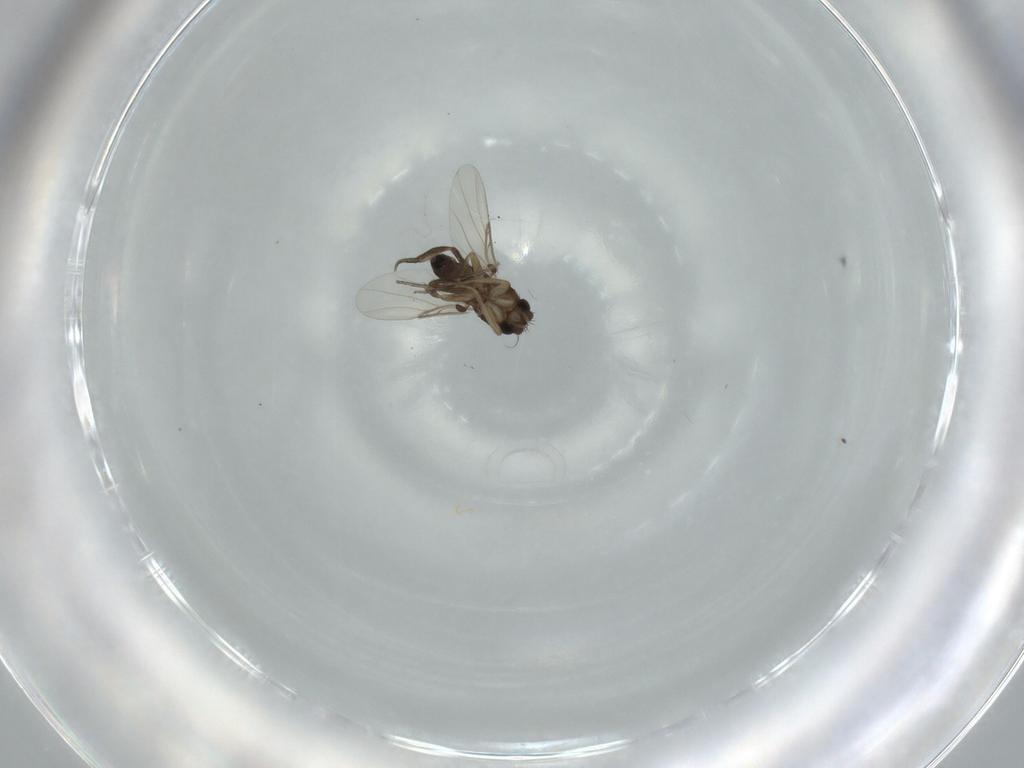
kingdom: Animalia
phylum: Arthropoda
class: Insecta
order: Diptera
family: Phoridae
